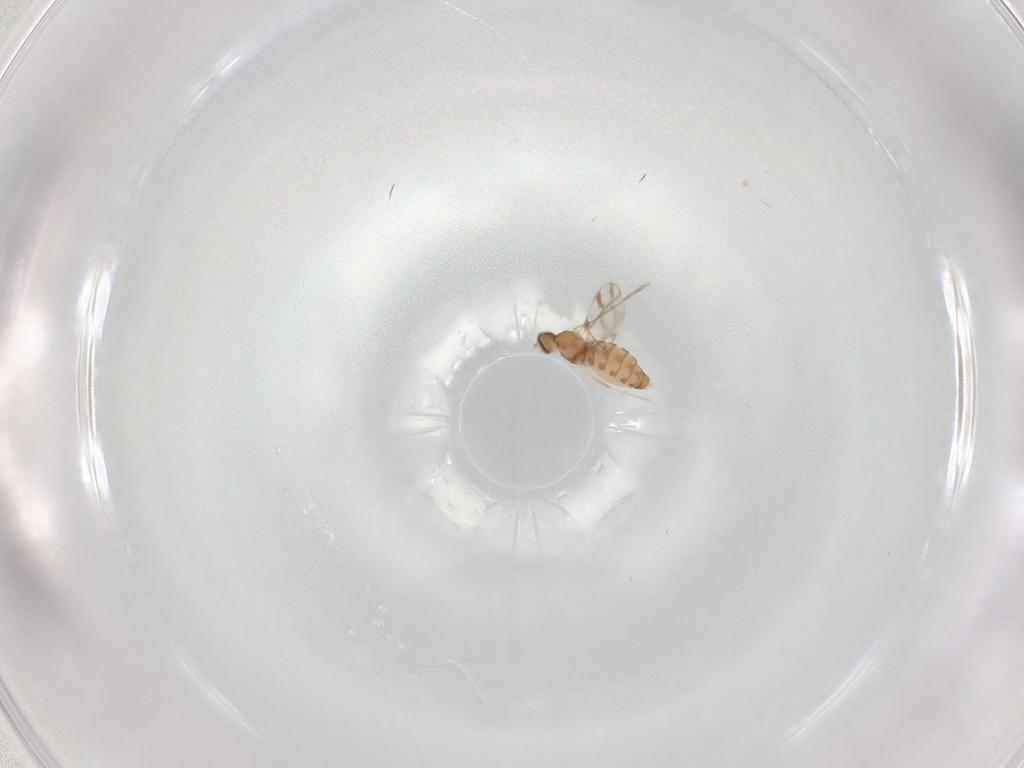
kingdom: Animalia
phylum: Arthropoda
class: Insecta
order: Diptera
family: Cecidomyiidae
